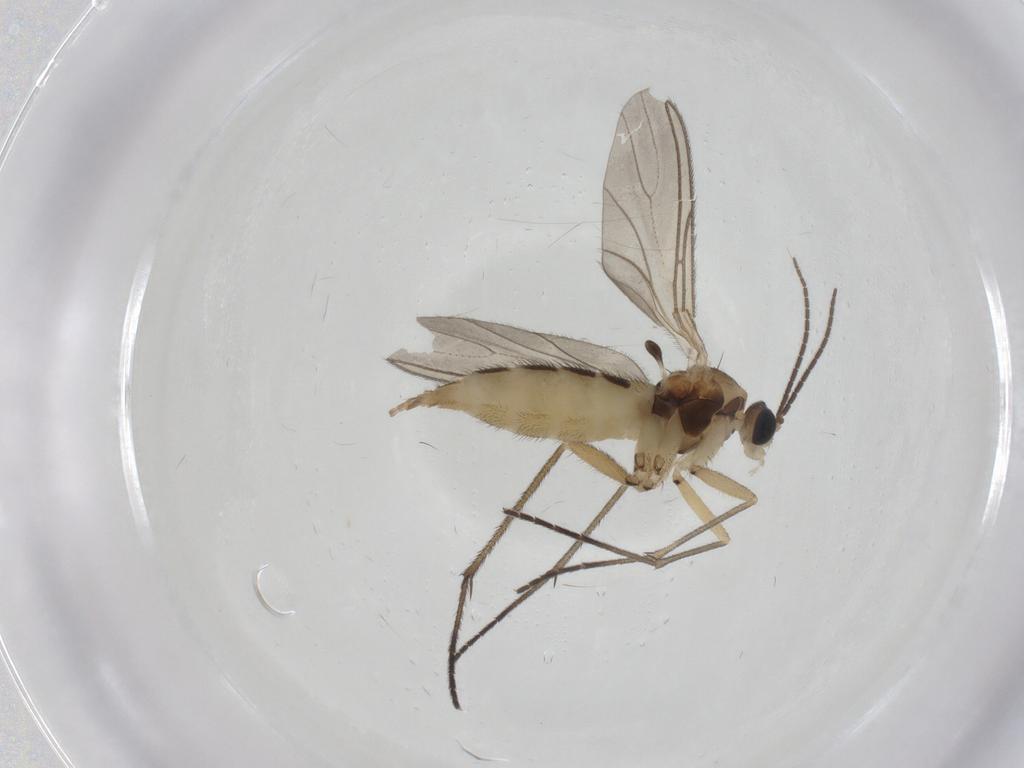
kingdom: Animalia
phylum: Arthropoda
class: Insecta
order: Diptera
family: Sciaridae
